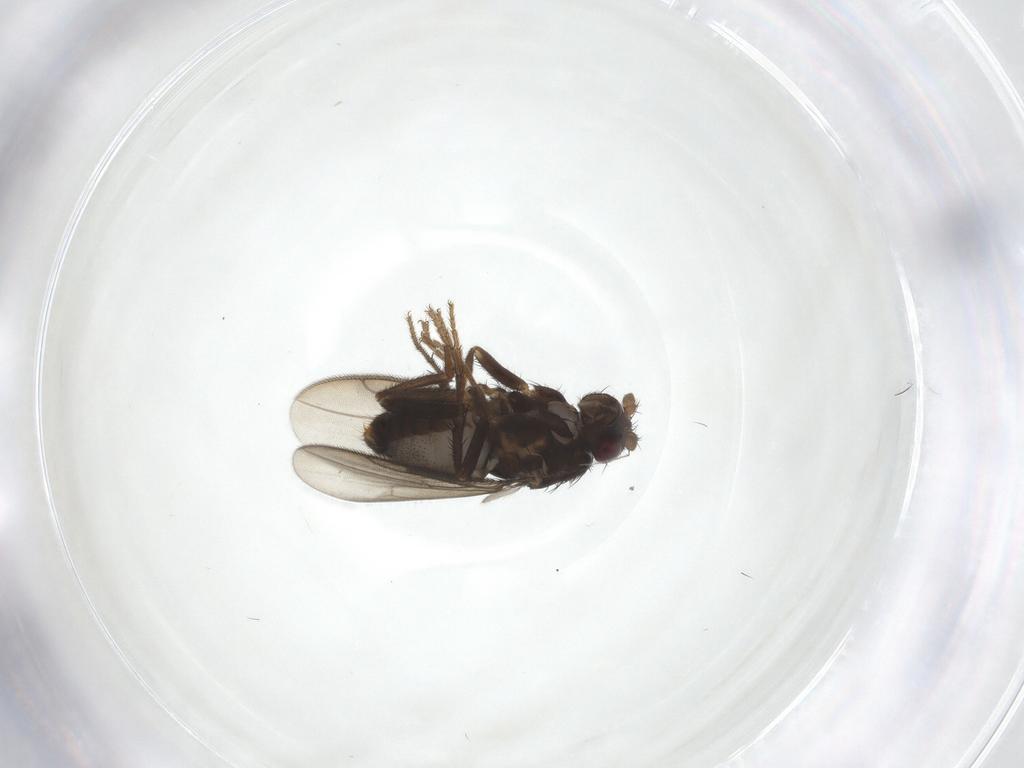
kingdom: Animalia
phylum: Arthropoda
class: Insecta
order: Diptera
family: Sphaeroceridae
